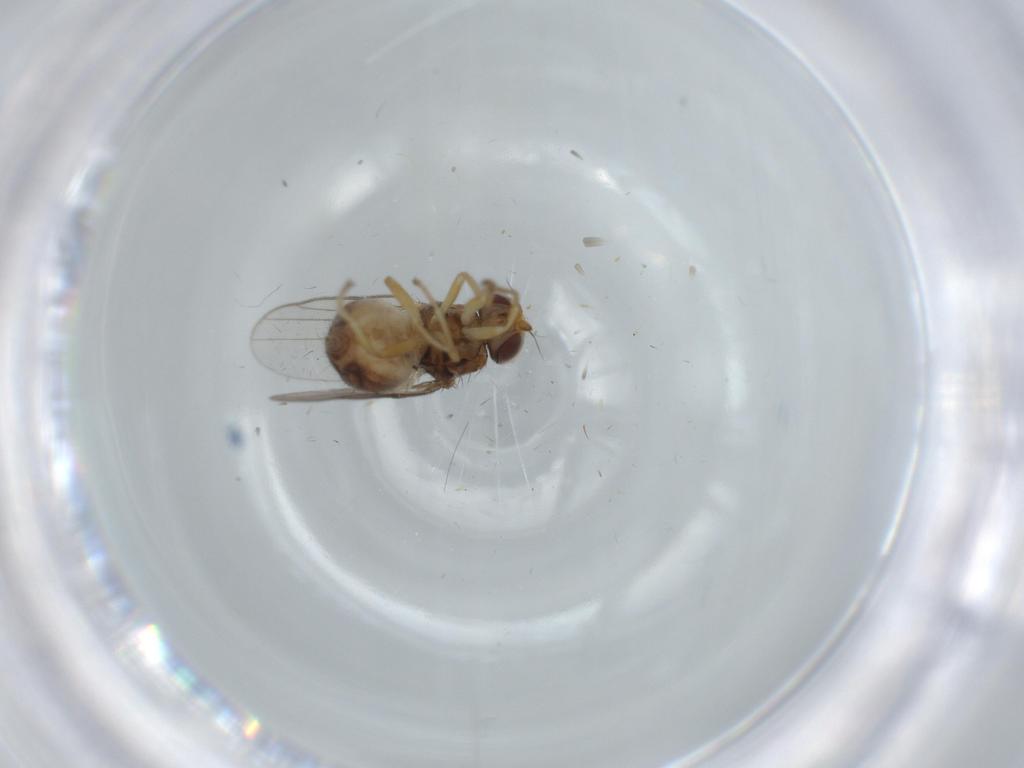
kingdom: Animalia
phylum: Arthropoda
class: Insecta
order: Diptera
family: Chloropidae
